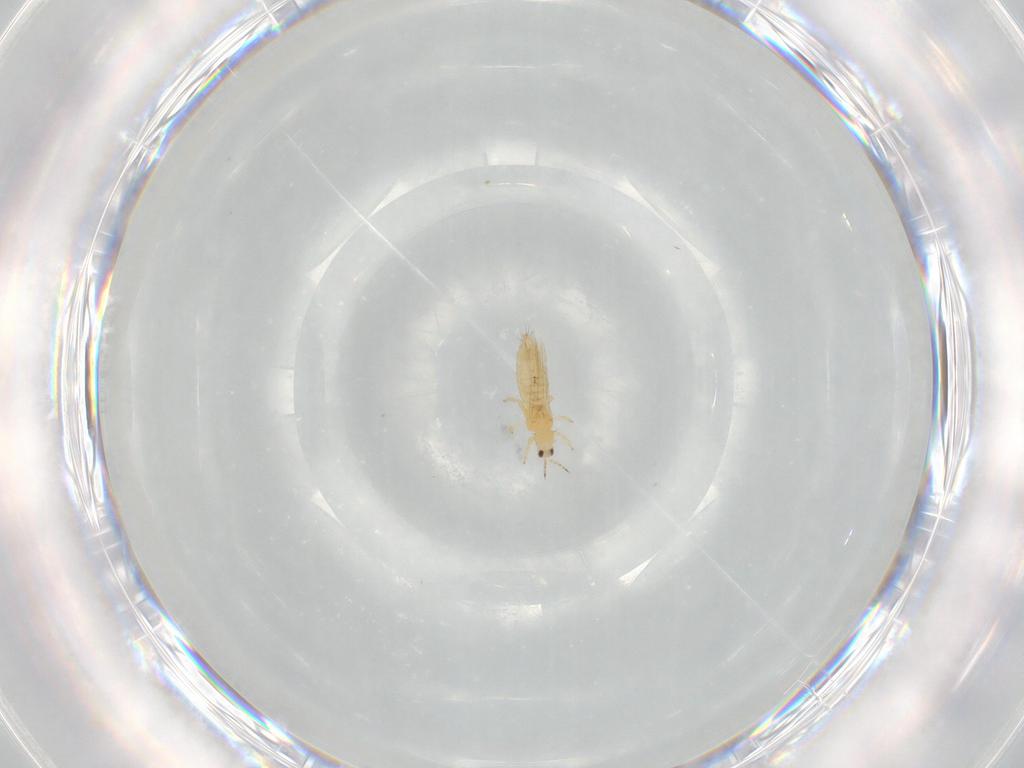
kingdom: Animalia
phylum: Arthropoda
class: Insecta
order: Thysanoptera
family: Thripidae
